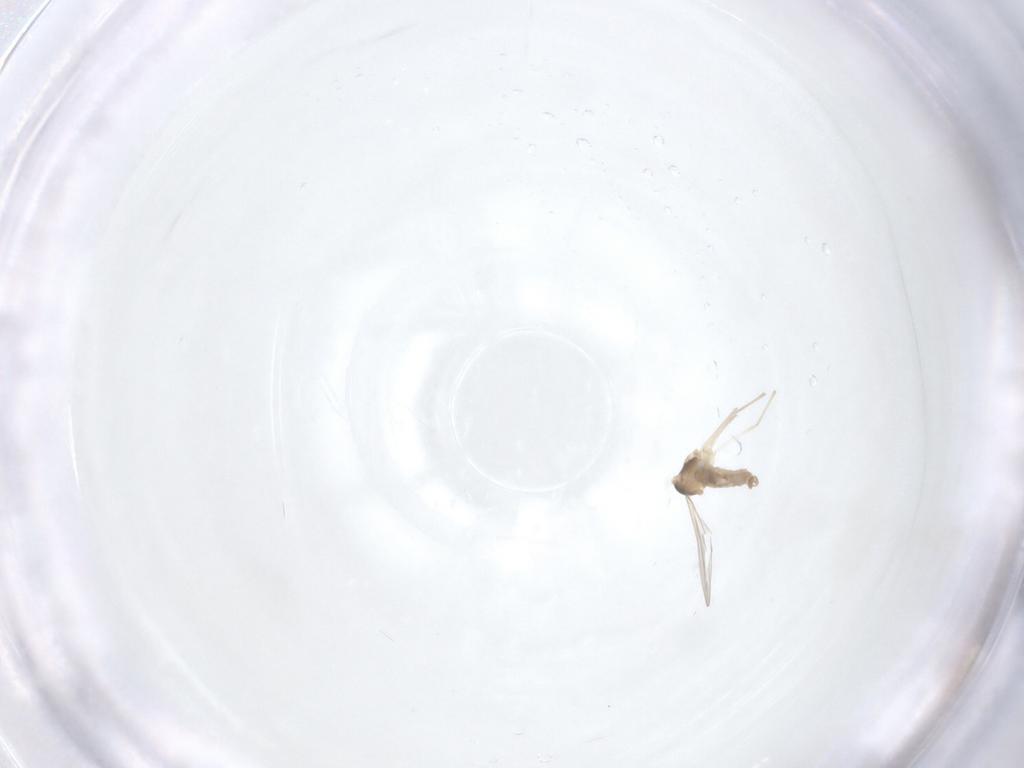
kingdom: Animalia
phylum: Arthropoda
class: Insecta
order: Diptera
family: Cecidomyiidae
